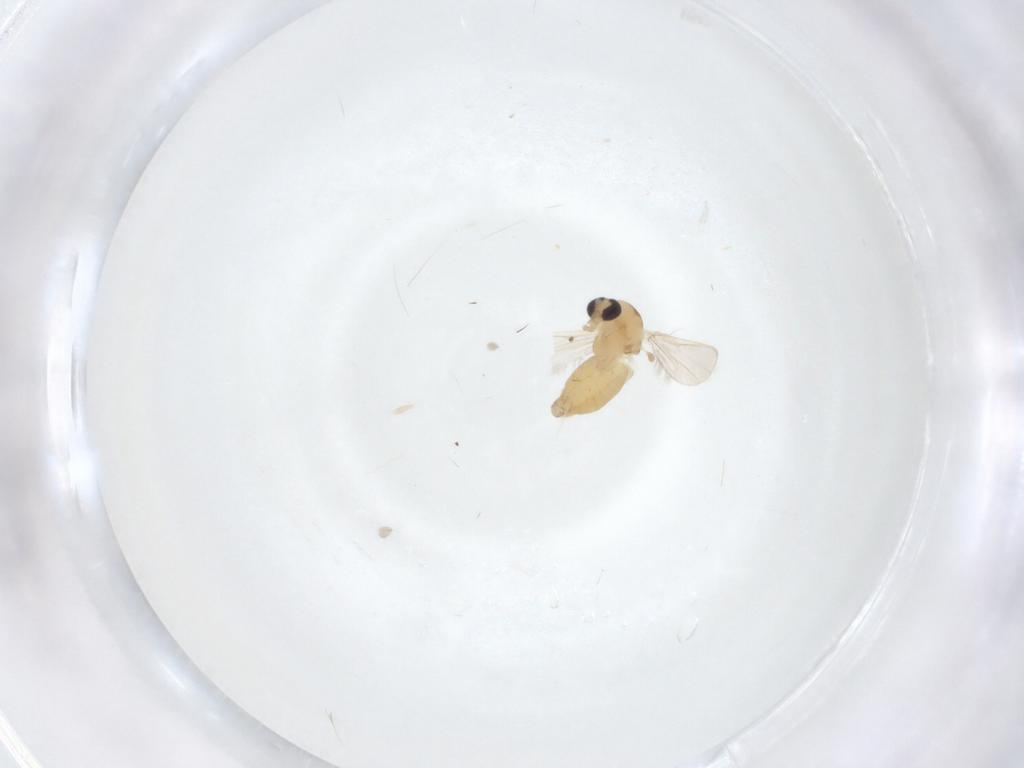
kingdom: Animalia
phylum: Arthropoda
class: Insecta
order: Diptera
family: Chironomidae
